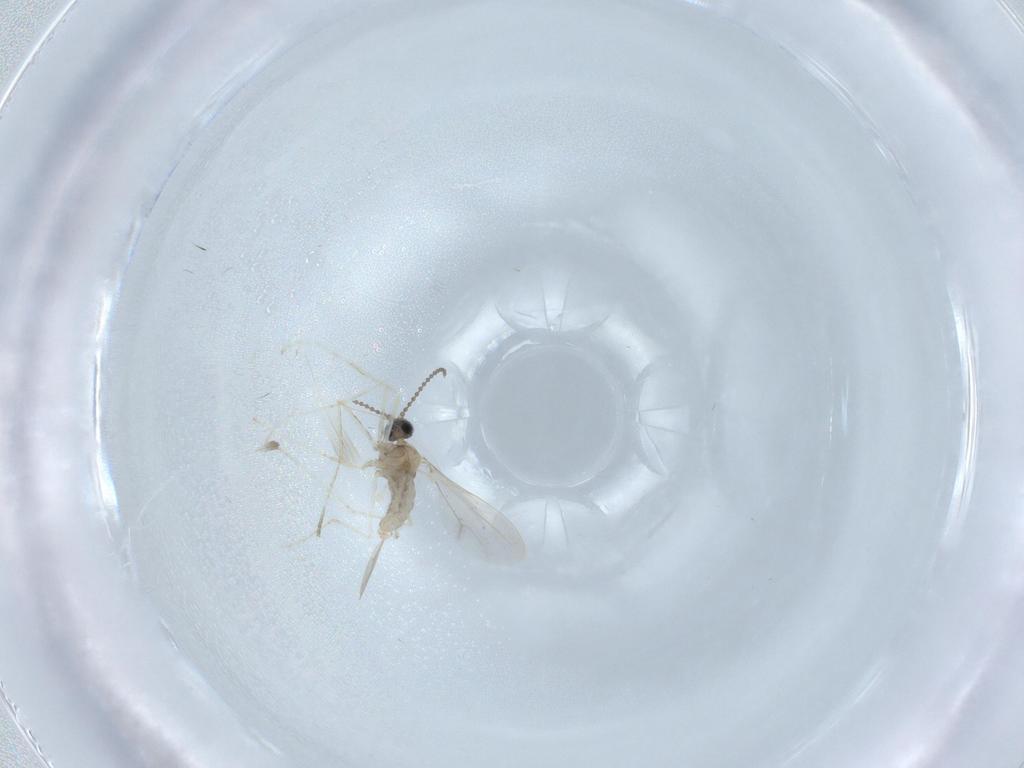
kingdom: Animalia
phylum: Arthropoda
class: Insecta
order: Diptera
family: Cecidomyiidae
